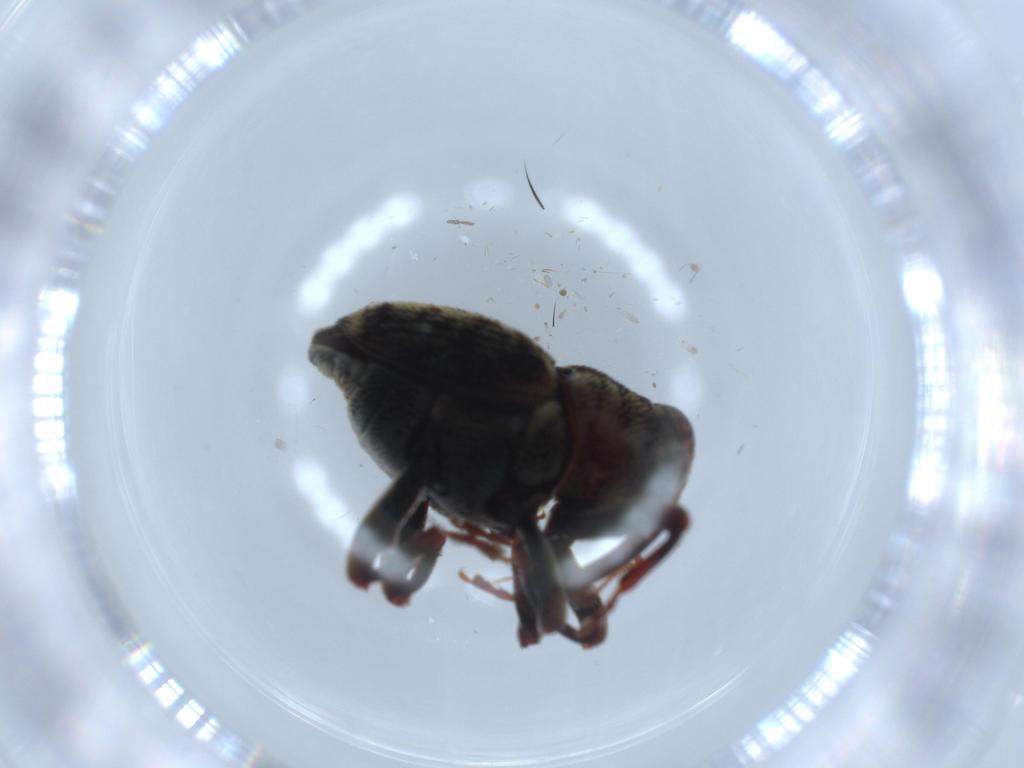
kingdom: Animalia
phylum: Arthropoda
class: Insecta
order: Coleoptera
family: Curculionidae
